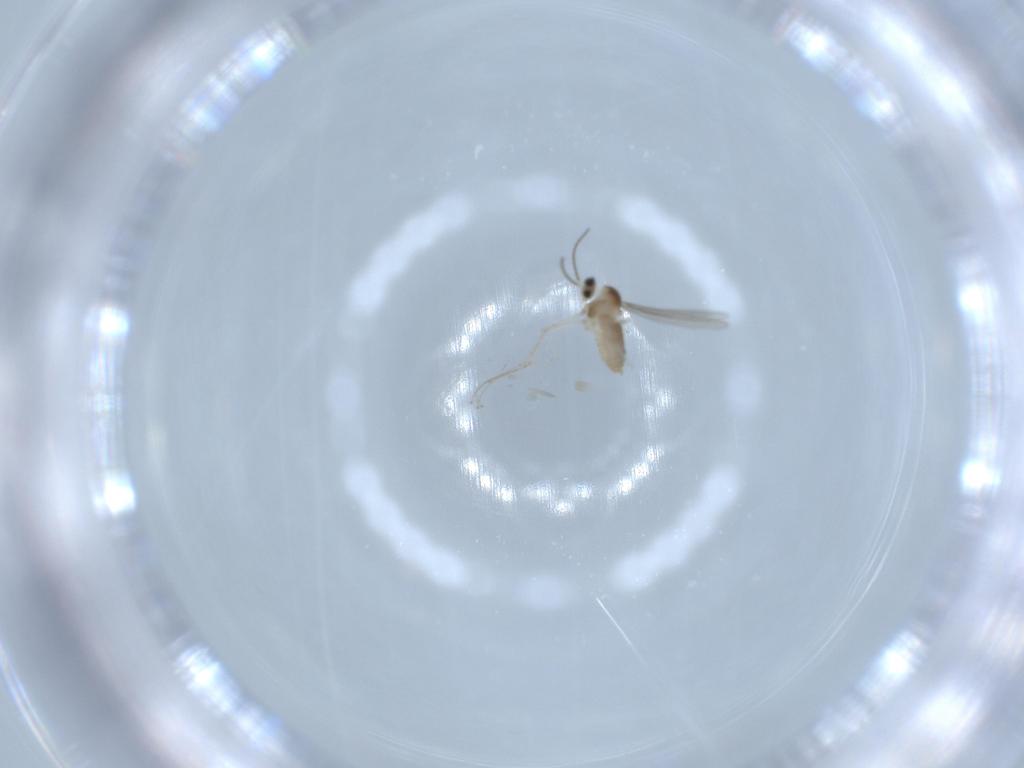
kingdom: Animalia
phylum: Arthropoda
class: Insecta
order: Diptera
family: Cecidomyiidae
